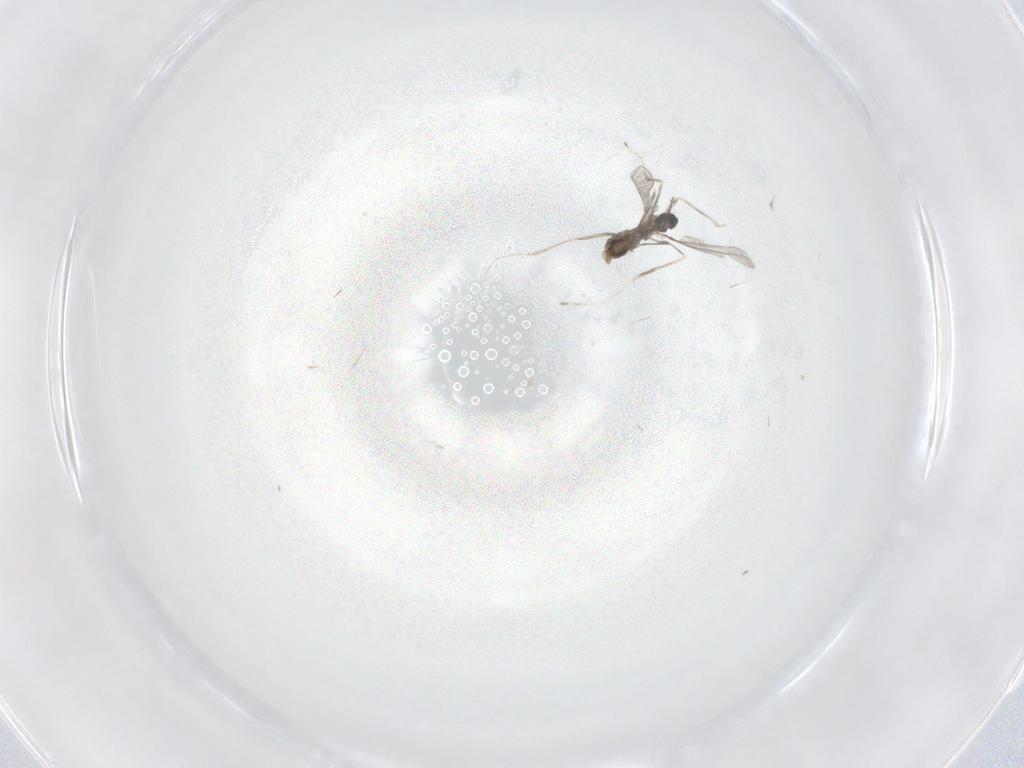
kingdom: Animalia
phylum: Arthropoda
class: Insecta
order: Diptera
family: Cecidomyiidae
